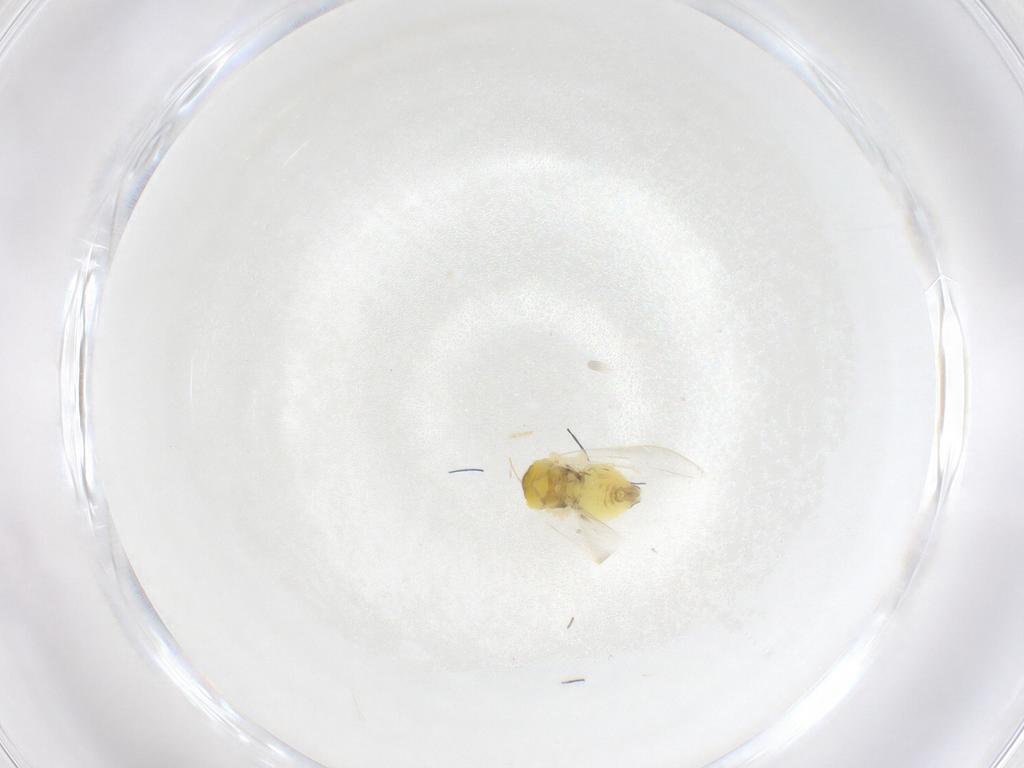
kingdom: Animalia
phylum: Arthropoda
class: Insecta
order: Hemiptera
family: Aleyrodidae
